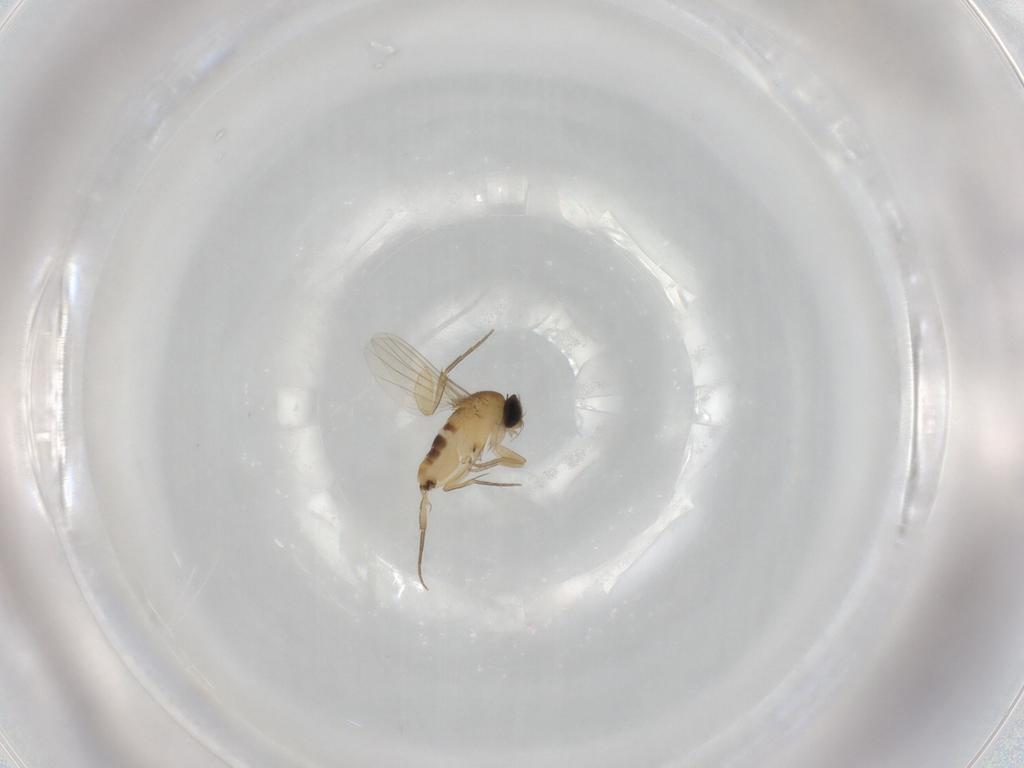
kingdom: Animalia
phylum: Arthropoda
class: Insecta
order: Diptera
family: Phoridae
